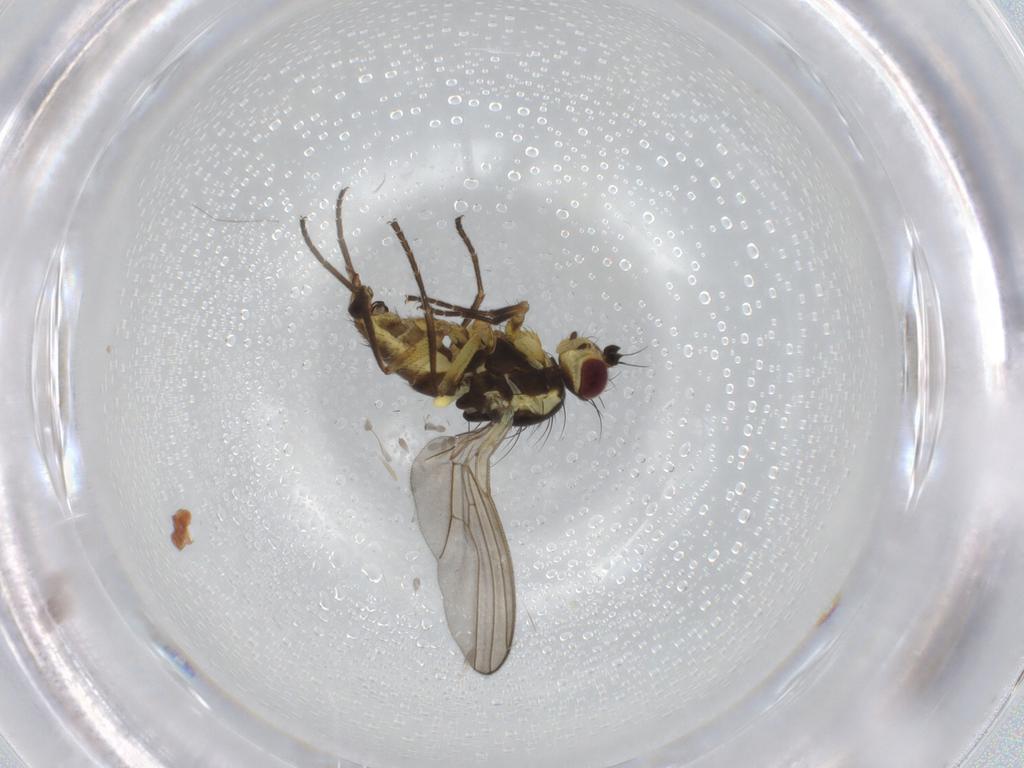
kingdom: Animalia
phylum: Arthropoda
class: Insecta
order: Diptera
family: Agromyzidae
